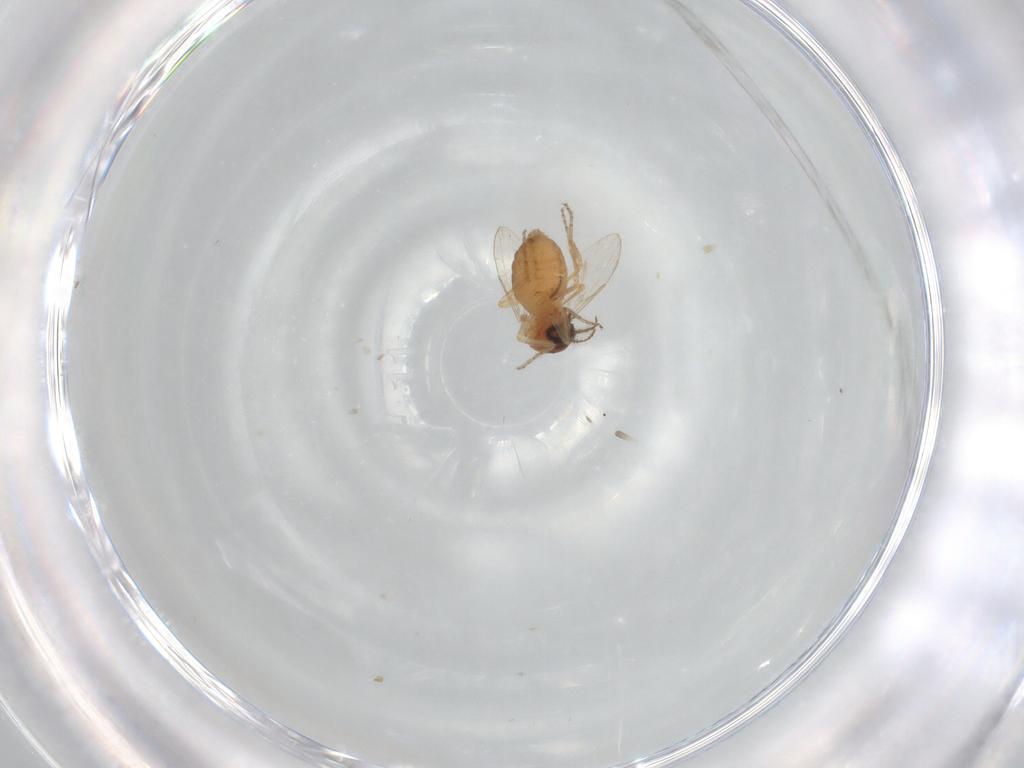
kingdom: Animalia
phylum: Arthropoda
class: Insecta
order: Diptera
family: Ceratopogonidae
